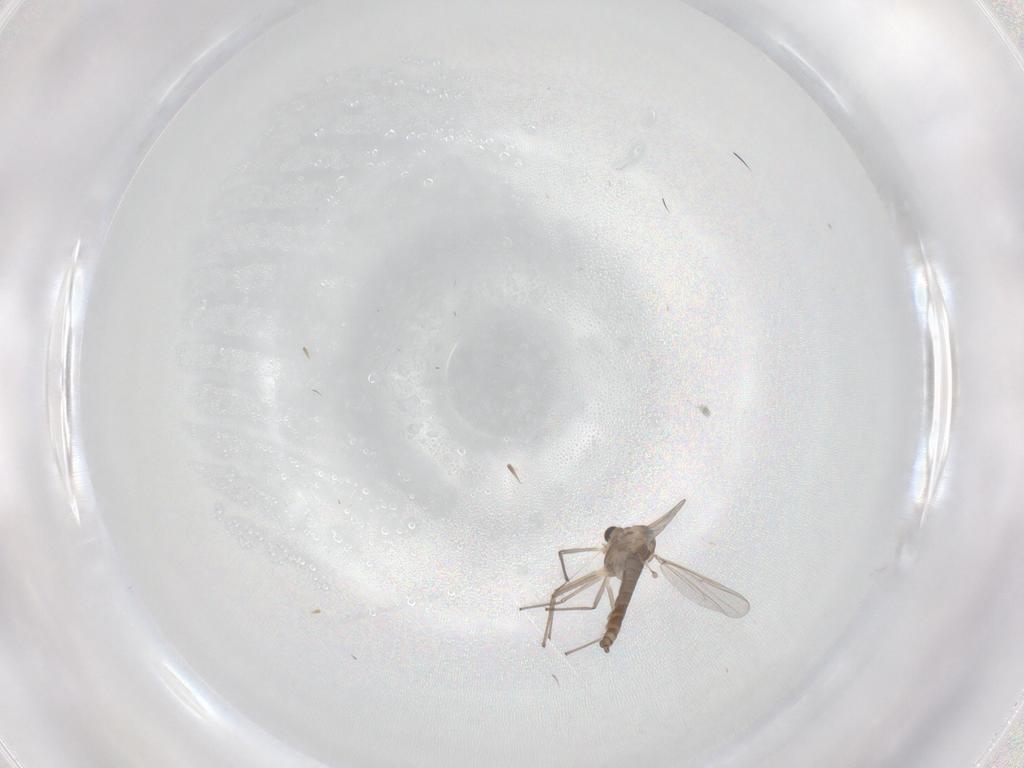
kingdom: Animalia
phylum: Arthropoda
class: Insecta
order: Diptera
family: Chironomidae
